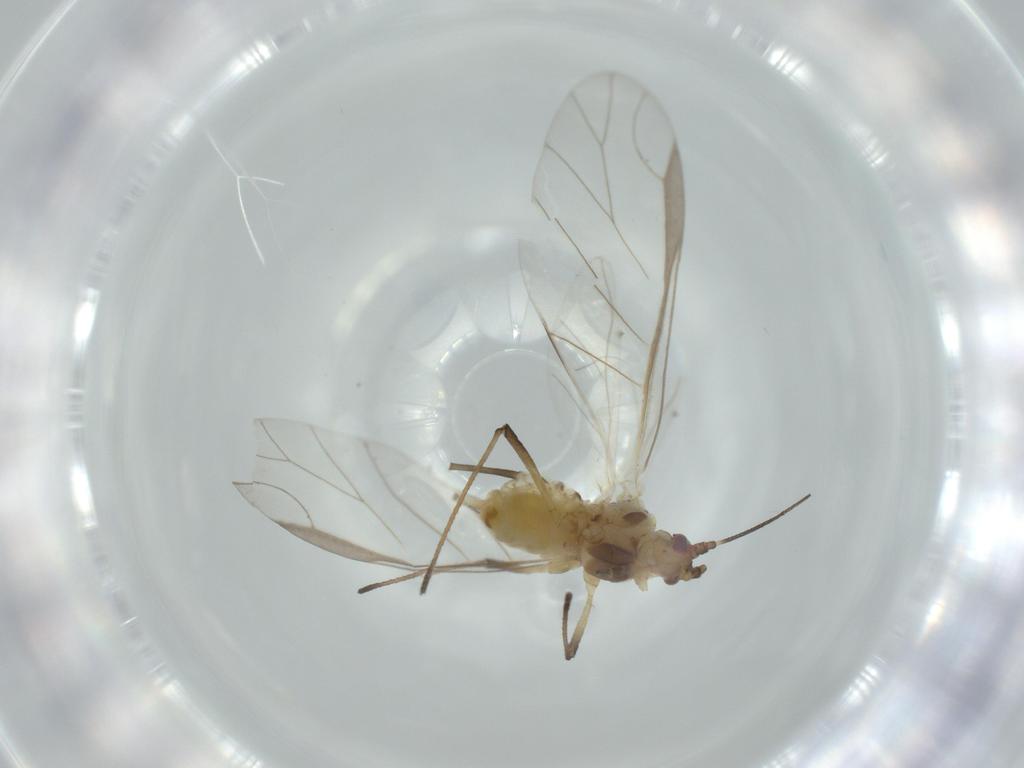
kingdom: Animalia
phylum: Arthropoda
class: Insecta
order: Hemiptera
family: Aphididae
